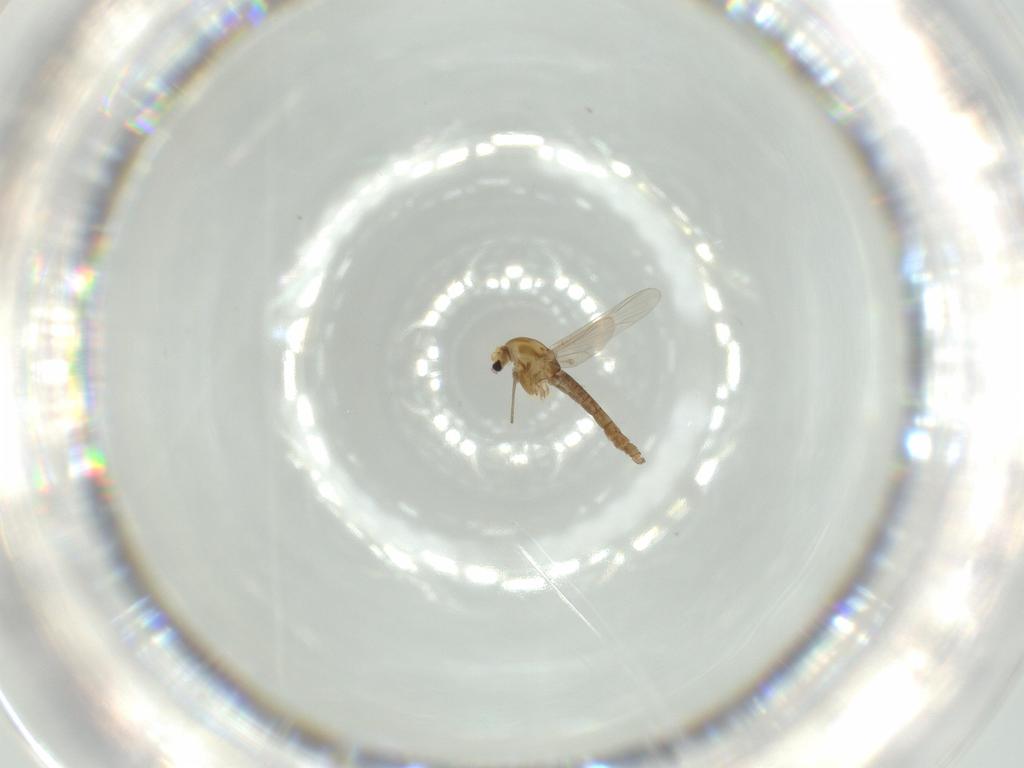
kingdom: Animalia
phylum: Arthropoda
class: Insecta
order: Diptera
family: Chironomidae
